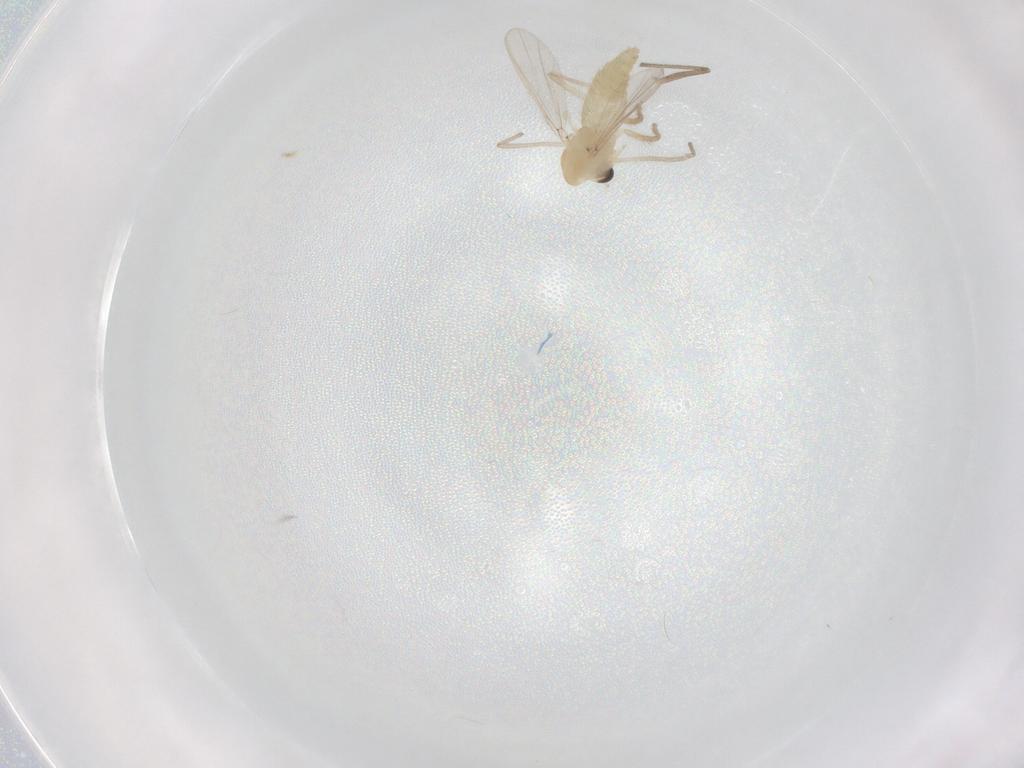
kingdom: Animalia
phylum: Arthropoda
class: Insecta
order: Diptera
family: Chironomidae
